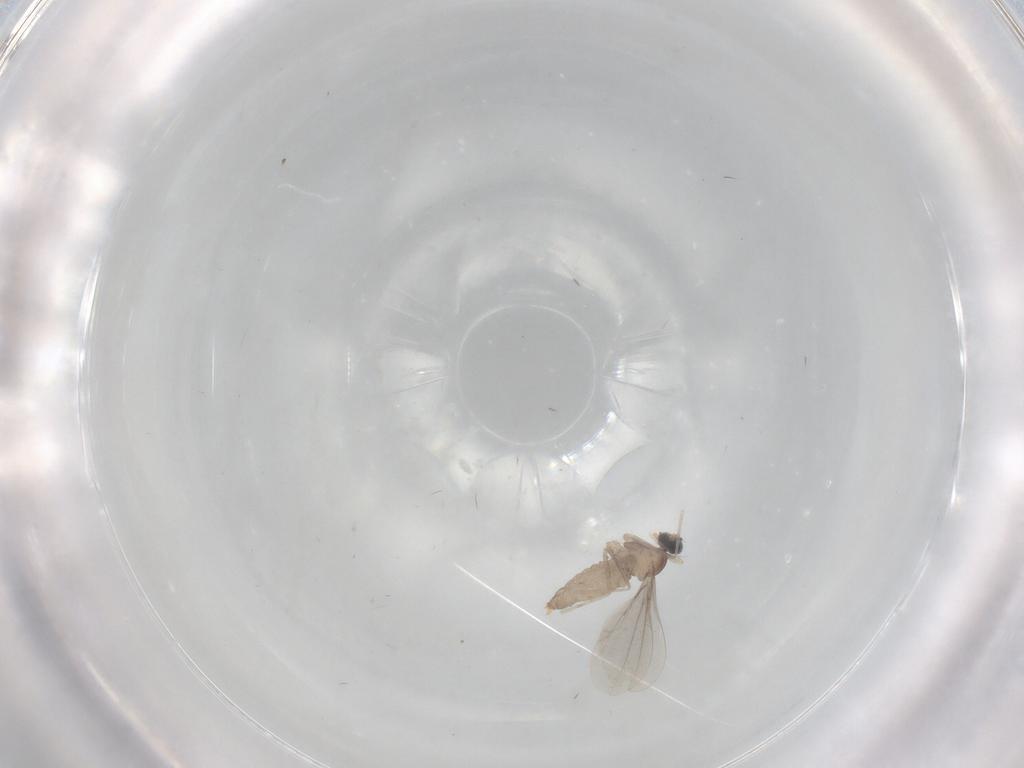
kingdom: Animalia
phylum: Arthropoda
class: Insecta
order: Diptera
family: Cecidomyiidae
